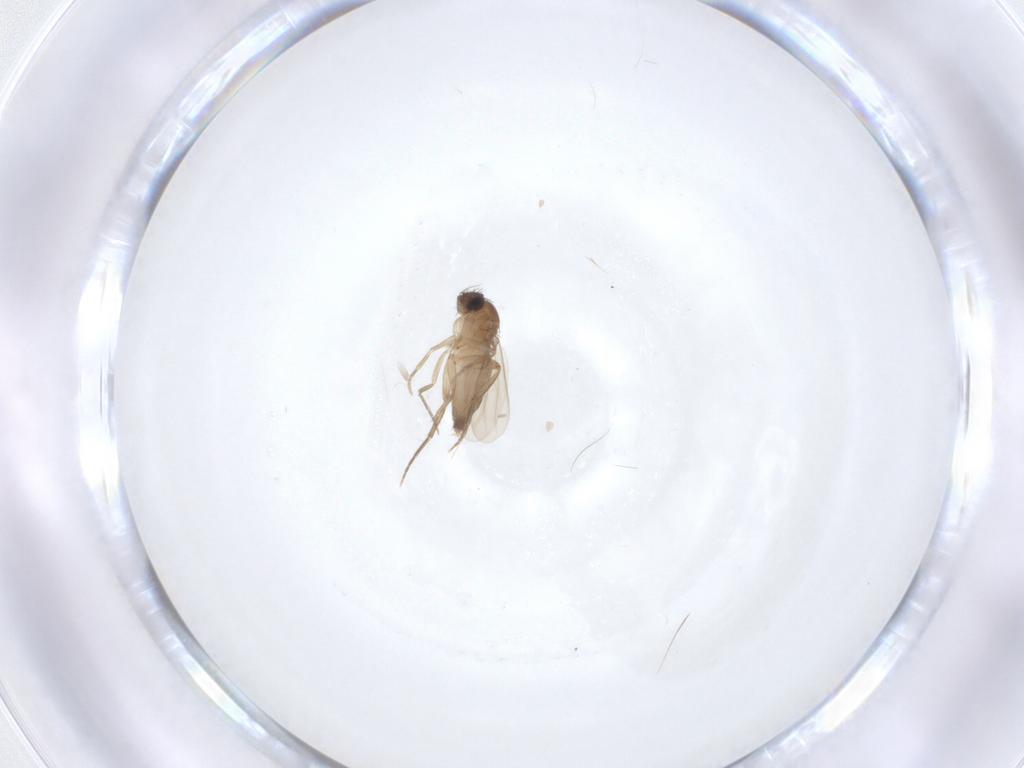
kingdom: Animalia
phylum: Arthropoda
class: Insecta
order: Diptera
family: Phoridae
